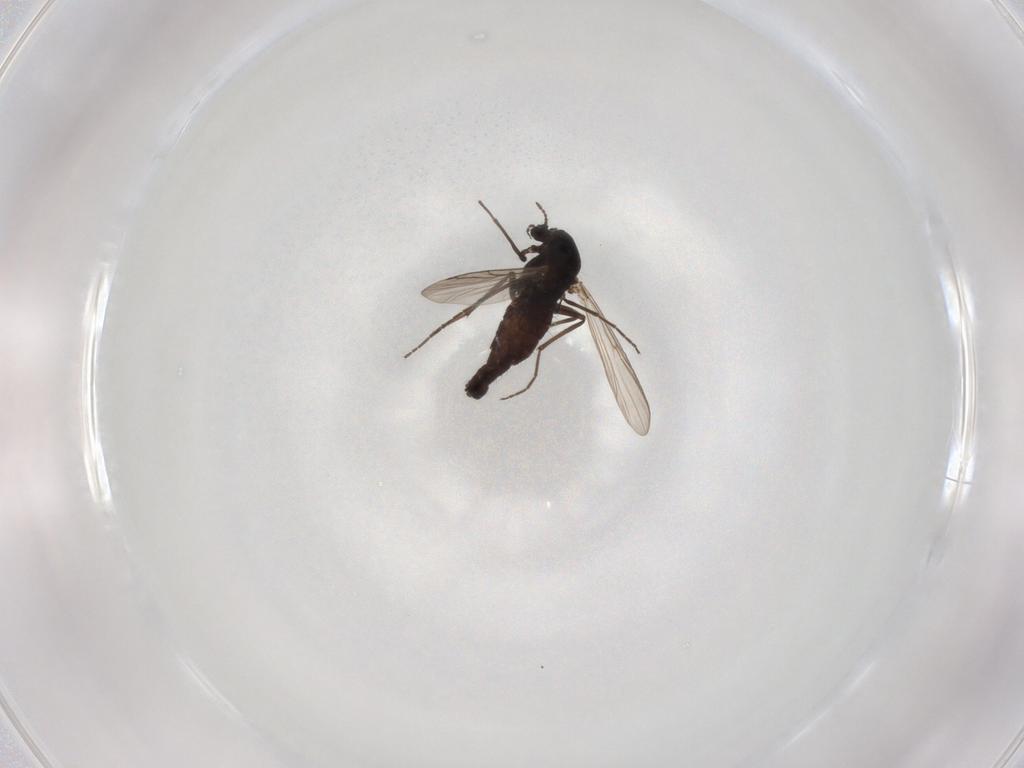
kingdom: Animalia
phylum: Arthropoda
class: Insecta
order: Diptera
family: Chironomidae
